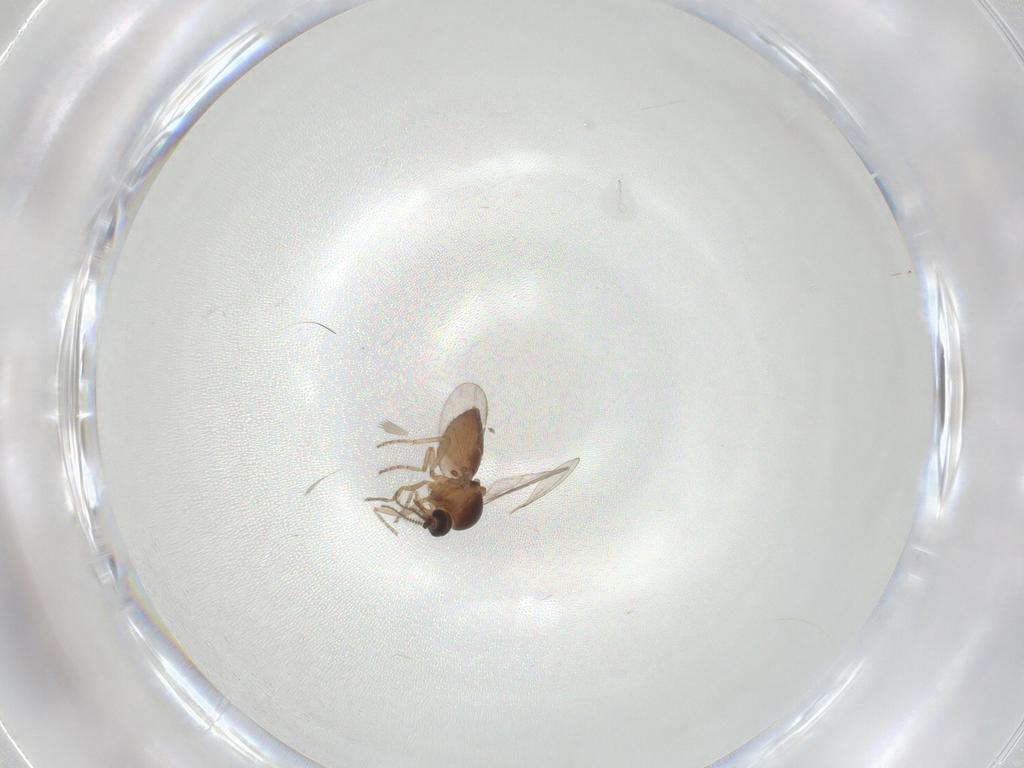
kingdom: Animalia
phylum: Arthropoda
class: Insecta
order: Diptera
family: Ceratopogonidae
